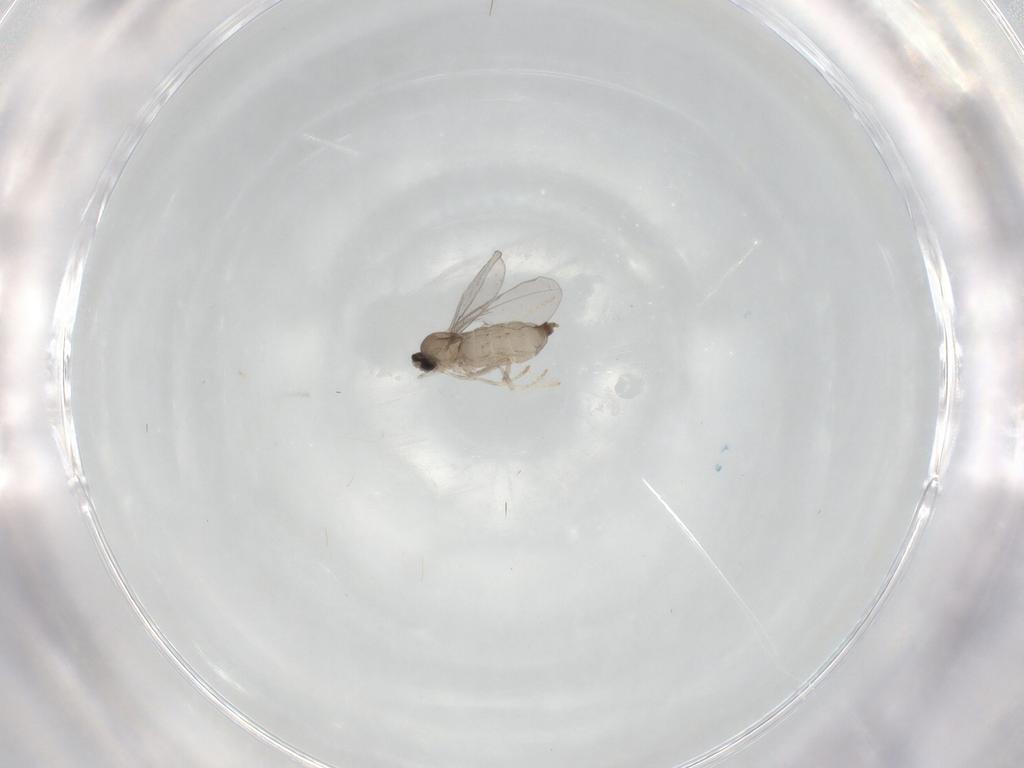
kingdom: Animalia
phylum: Arthropoda
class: Insecta
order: Diptera
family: Cecidomyiidae
